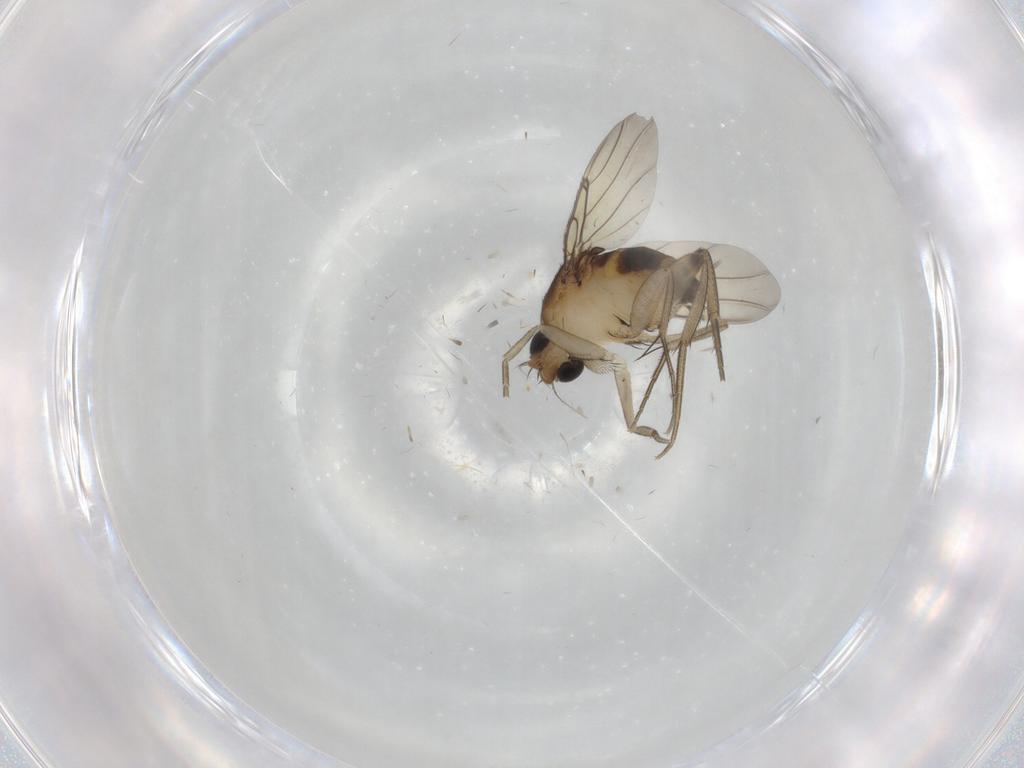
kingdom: Animalia
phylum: Arthropoda
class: Insecta
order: Diptera
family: Phoridae
